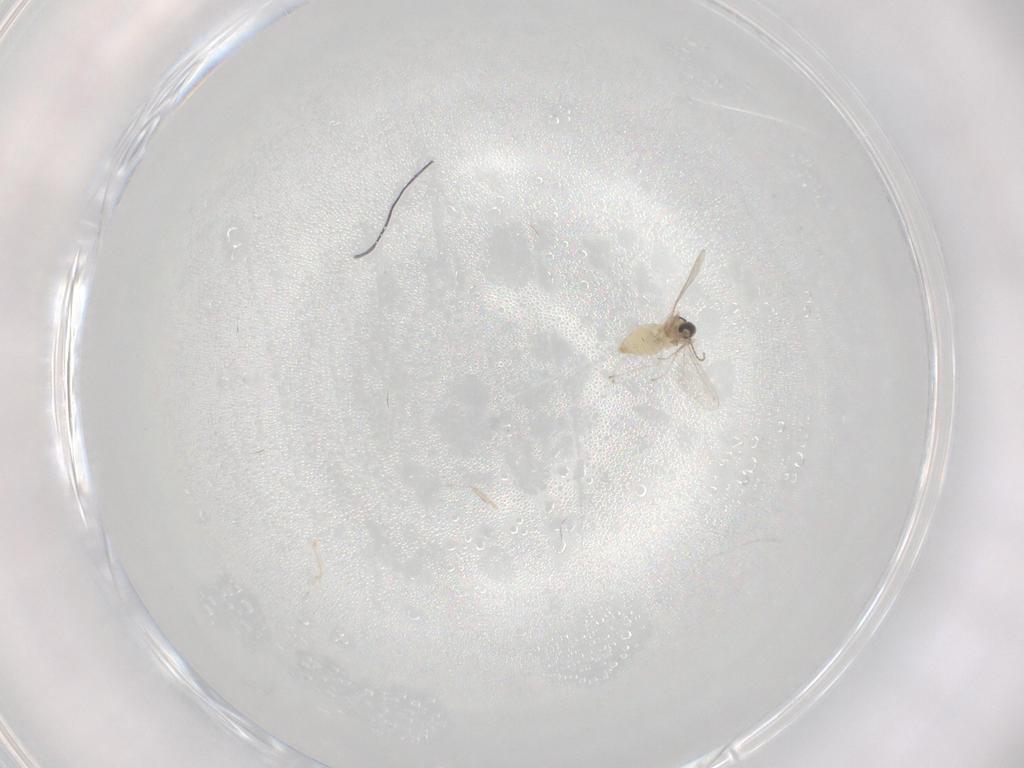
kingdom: Animalia
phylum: Arthropoda
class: Insecta
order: Diptera
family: Cecidomyiidae
